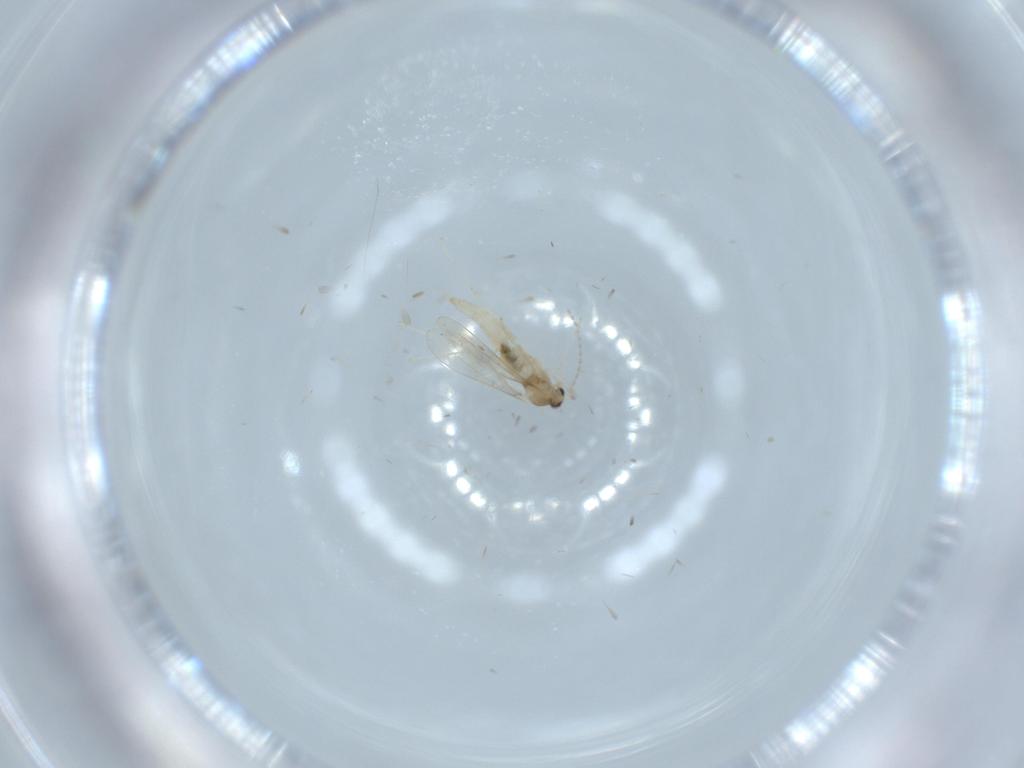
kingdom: Animalia
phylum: Arthropoda
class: Insecta
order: Diptera
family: Cecidomyiidae
